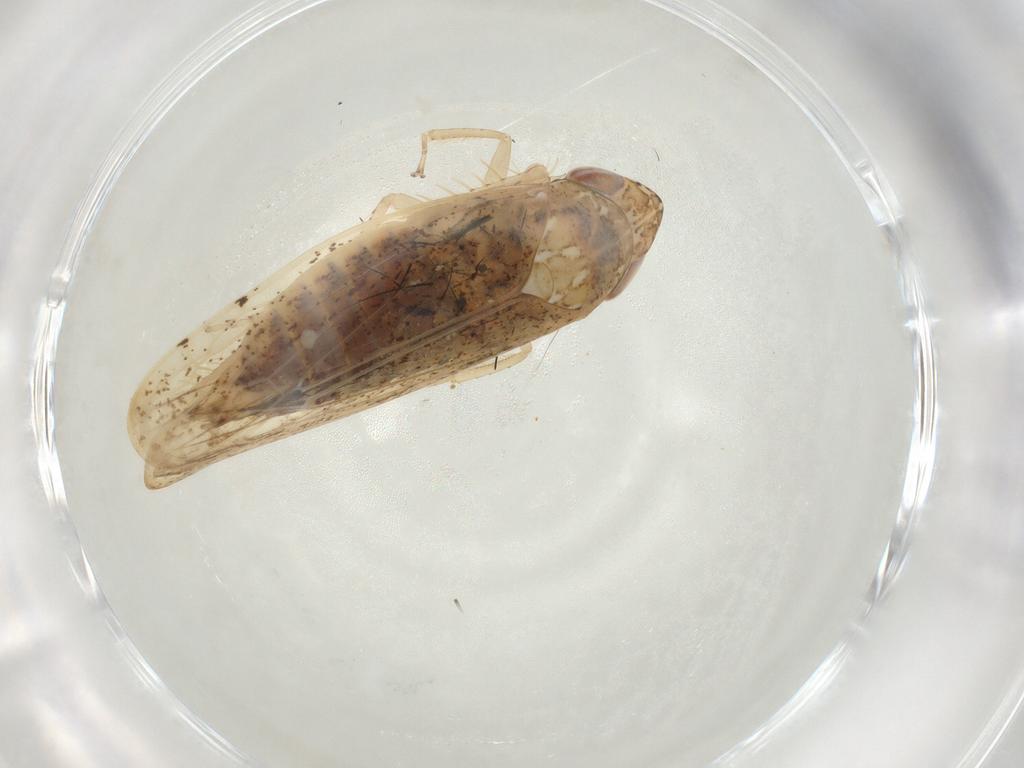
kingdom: Animalia
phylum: Arthropoda
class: Insecta
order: Hemiptera
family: Cicadellidae
